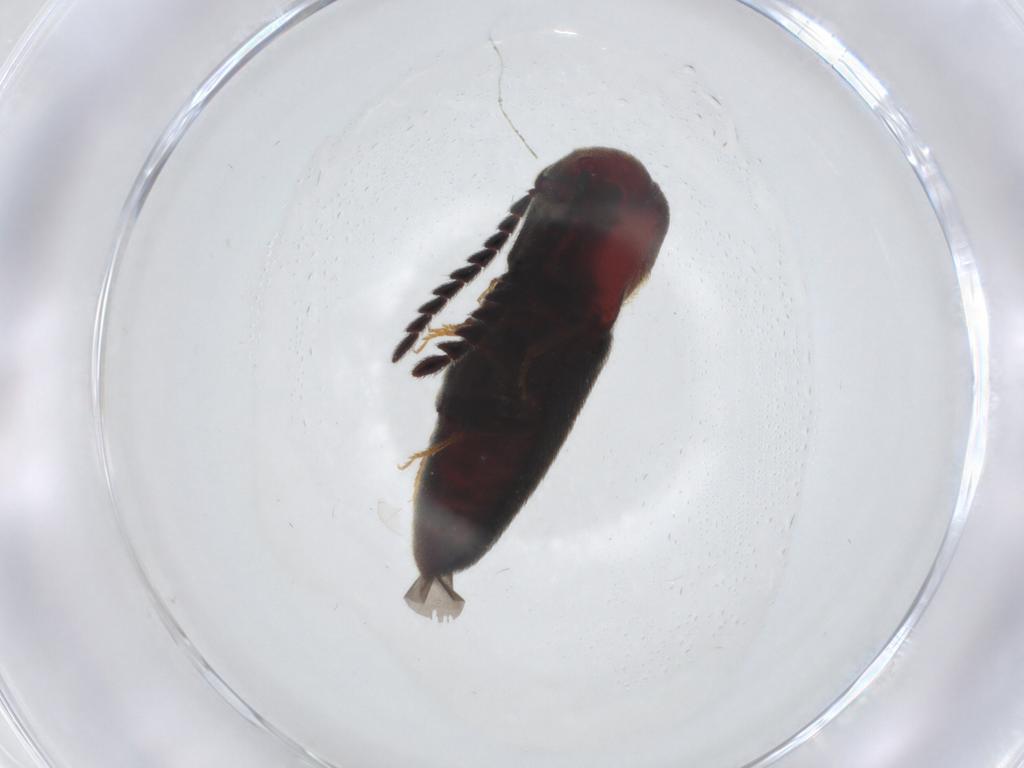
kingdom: Animalia
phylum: Arthropoda
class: Insecta
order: Coleoptera
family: Eucnemidae
